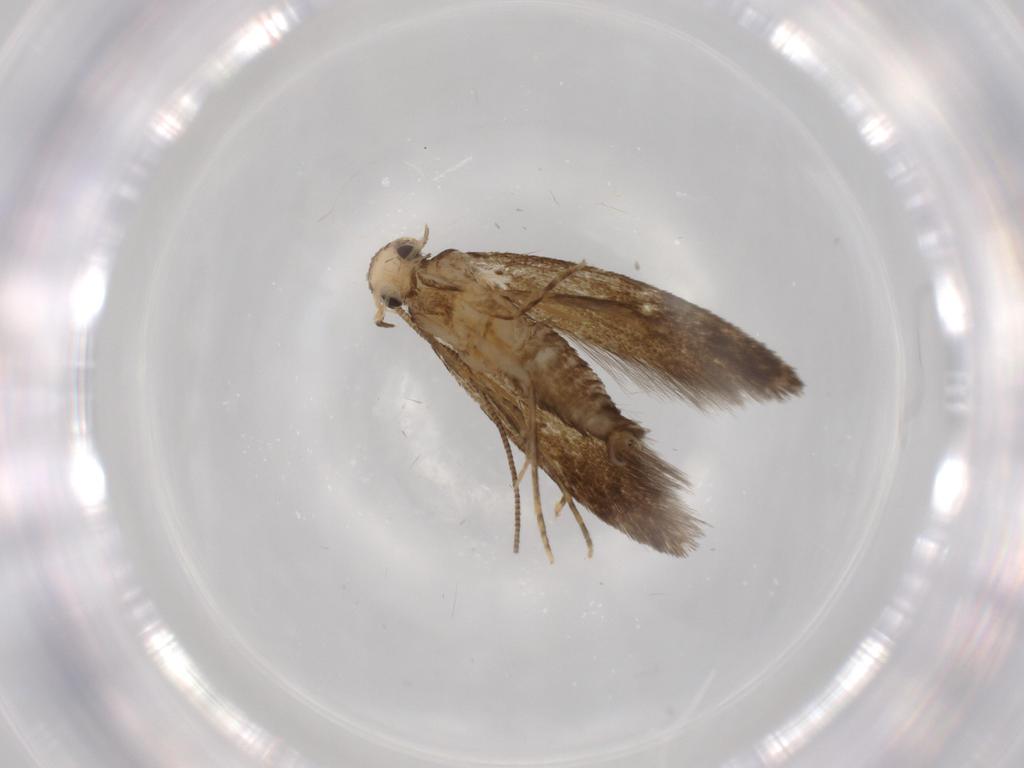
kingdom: Animalia
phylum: Arthropoda
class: Insecta
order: Lepidoptera
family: Tineidae
